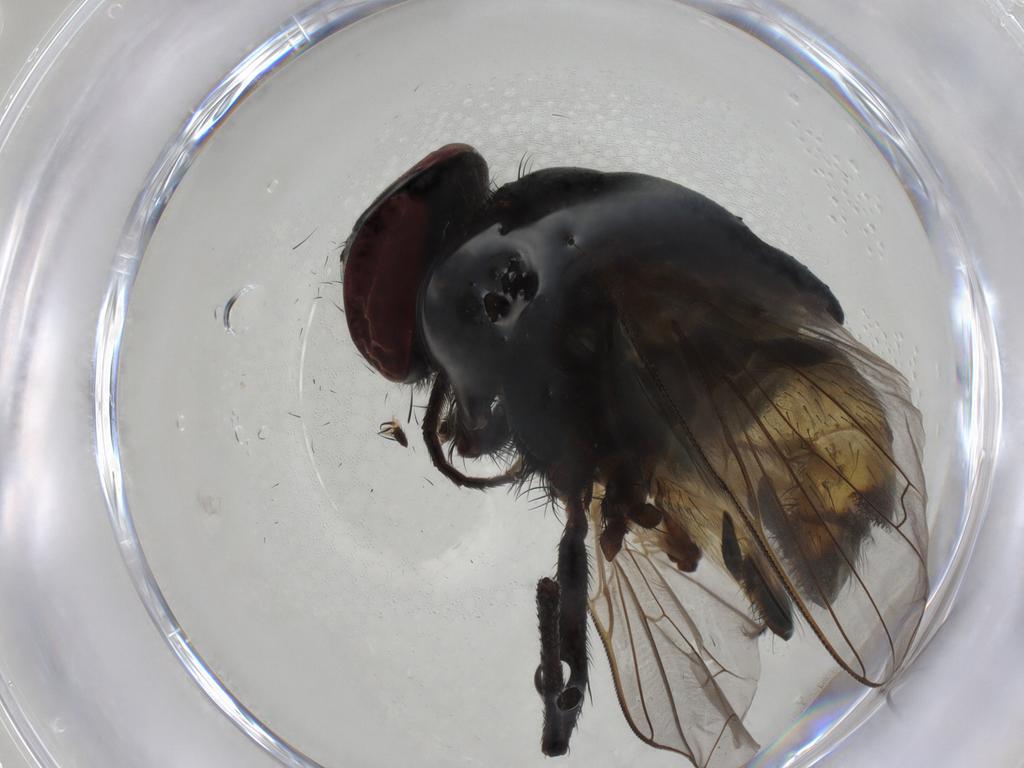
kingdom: Animalia
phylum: Arthropoda
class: Insecta
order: Diptera
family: Muscidae
